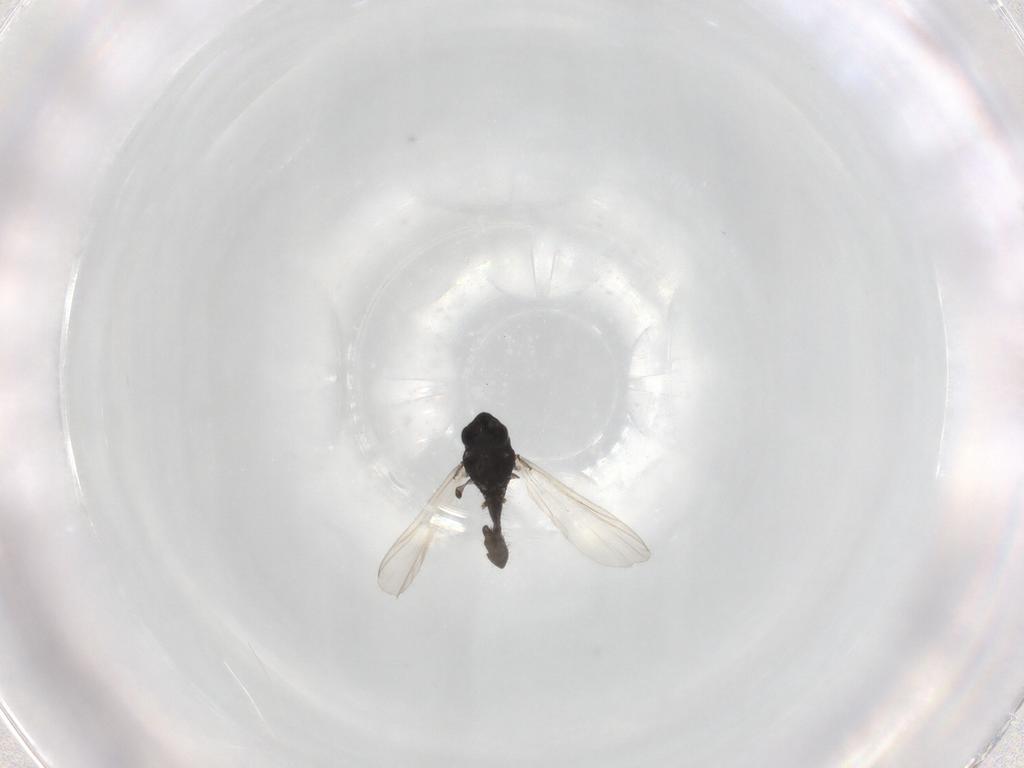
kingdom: Animalia
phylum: Arthropoda
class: Insecta
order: Diptera
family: Chironomidae
